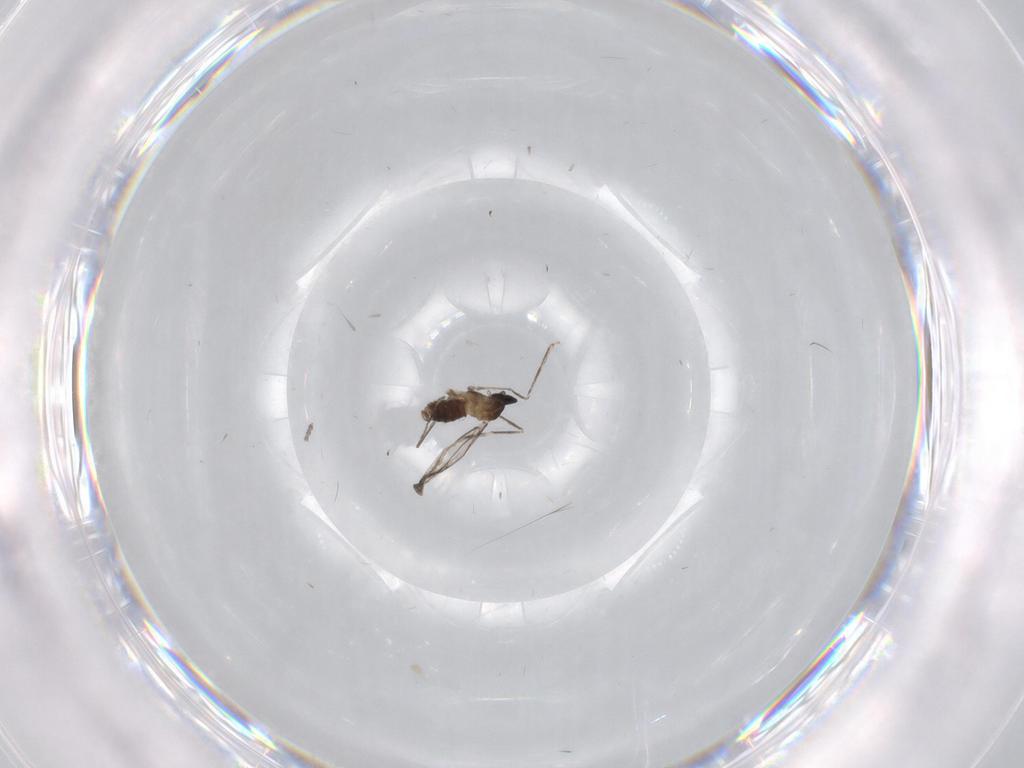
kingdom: Animalia
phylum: Arthropoda
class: Insecta
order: Diptera
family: Cecidomyiidae
